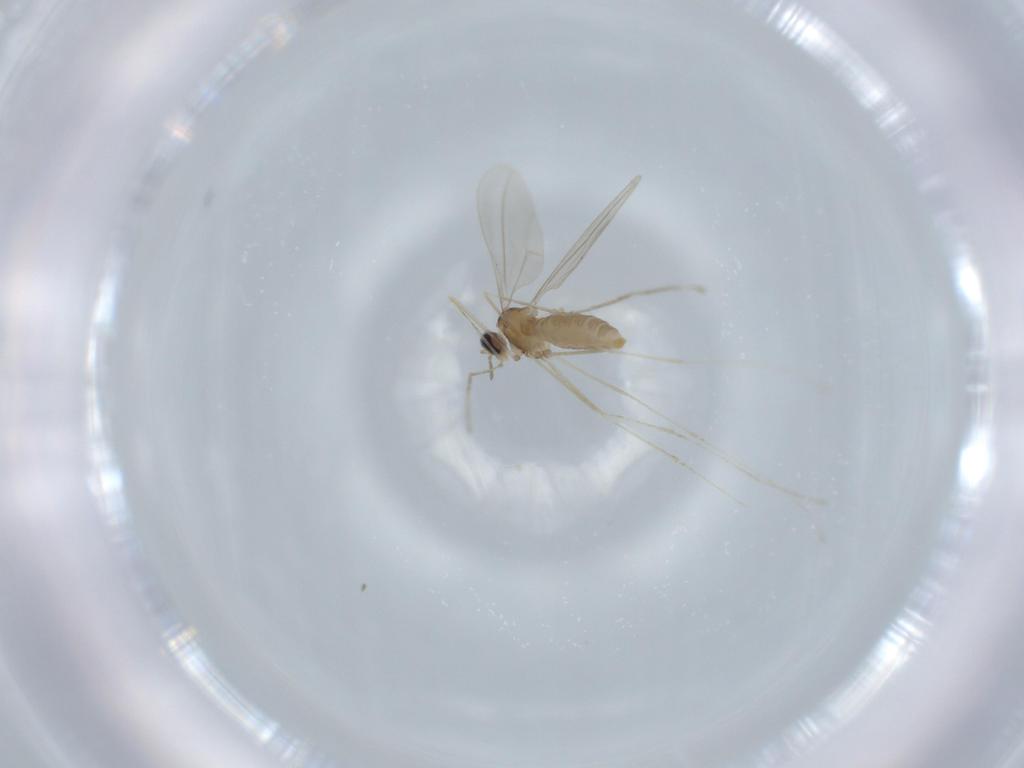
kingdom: Animalia
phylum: Arthropoda
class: Insecta
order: Diptera
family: Cecidomyiidae
